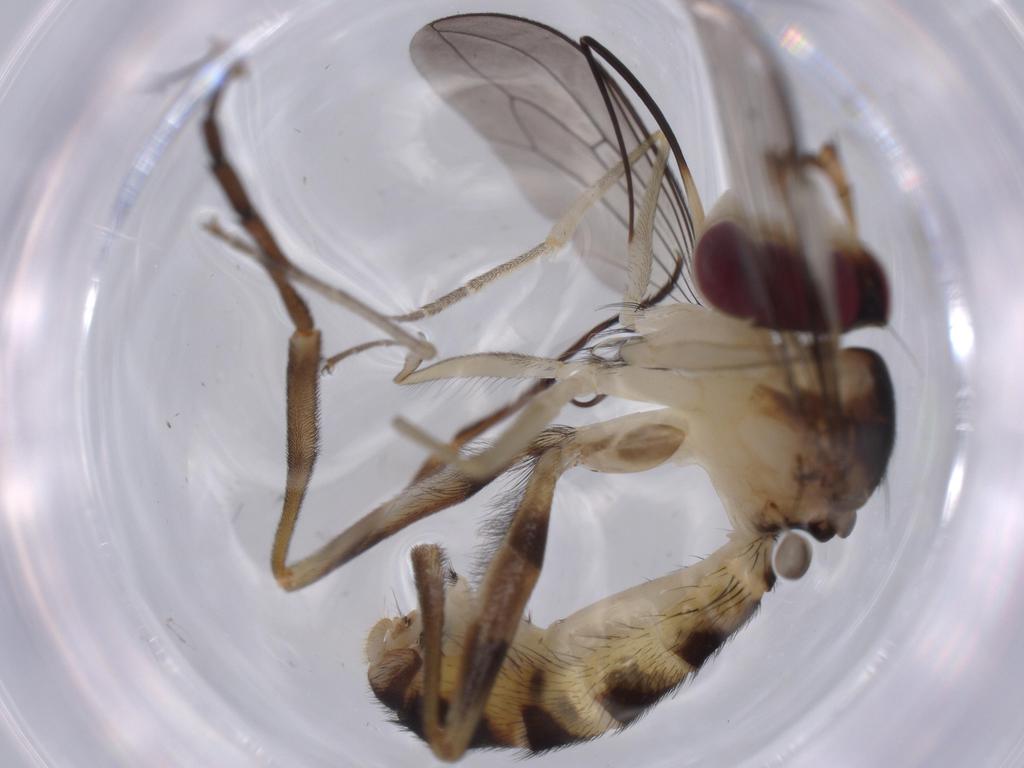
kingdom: Animalia
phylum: Arthropoda
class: Insecta
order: Diptera
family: Conopidae
